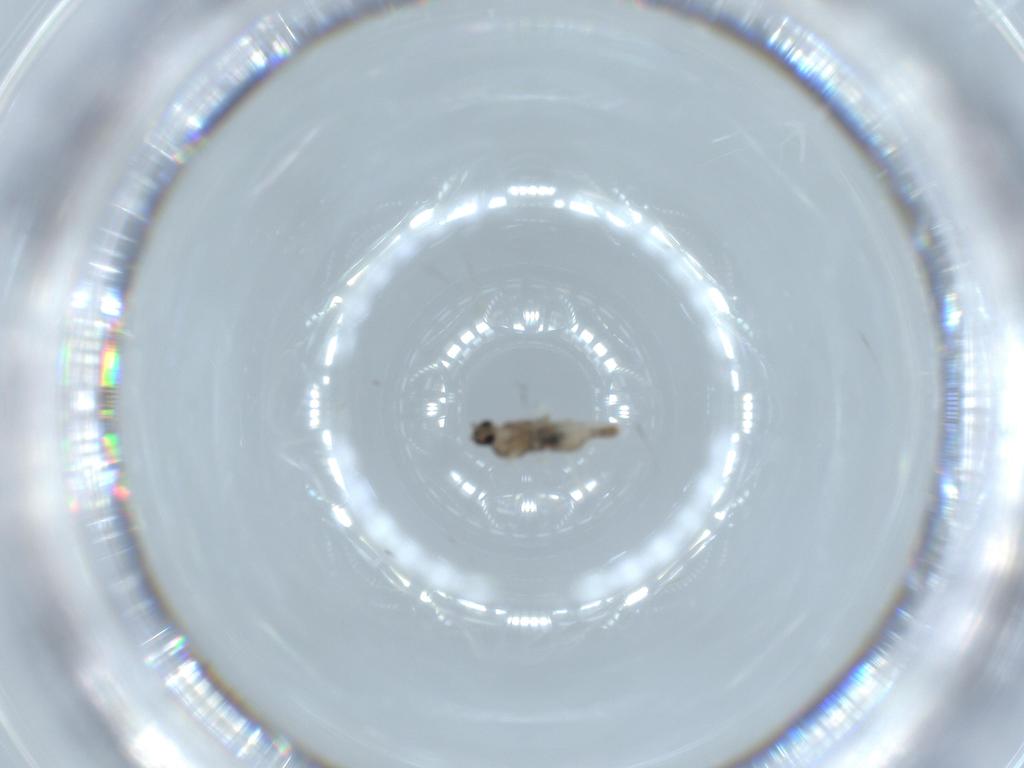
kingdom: Animalia
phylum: Arthropoda
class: Insecta
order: Diptera
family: Cecidomyiidae
